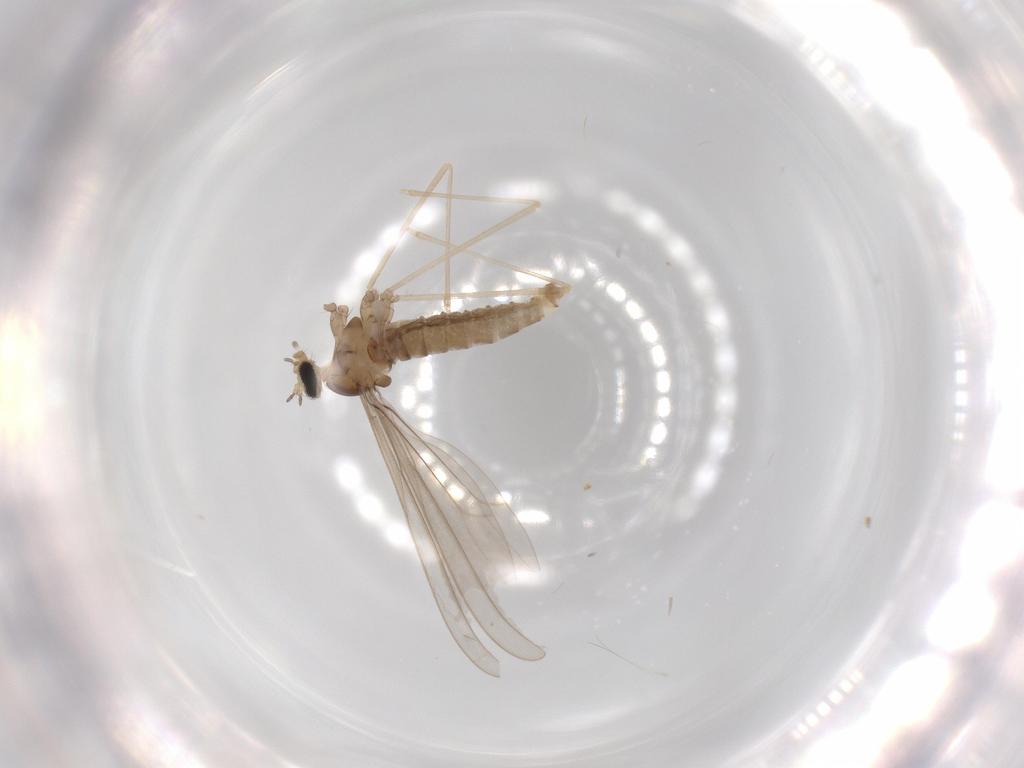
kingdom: Animalia
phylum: Arthropoda
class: Insecta
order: Diptera
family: Cecidomyiidae
